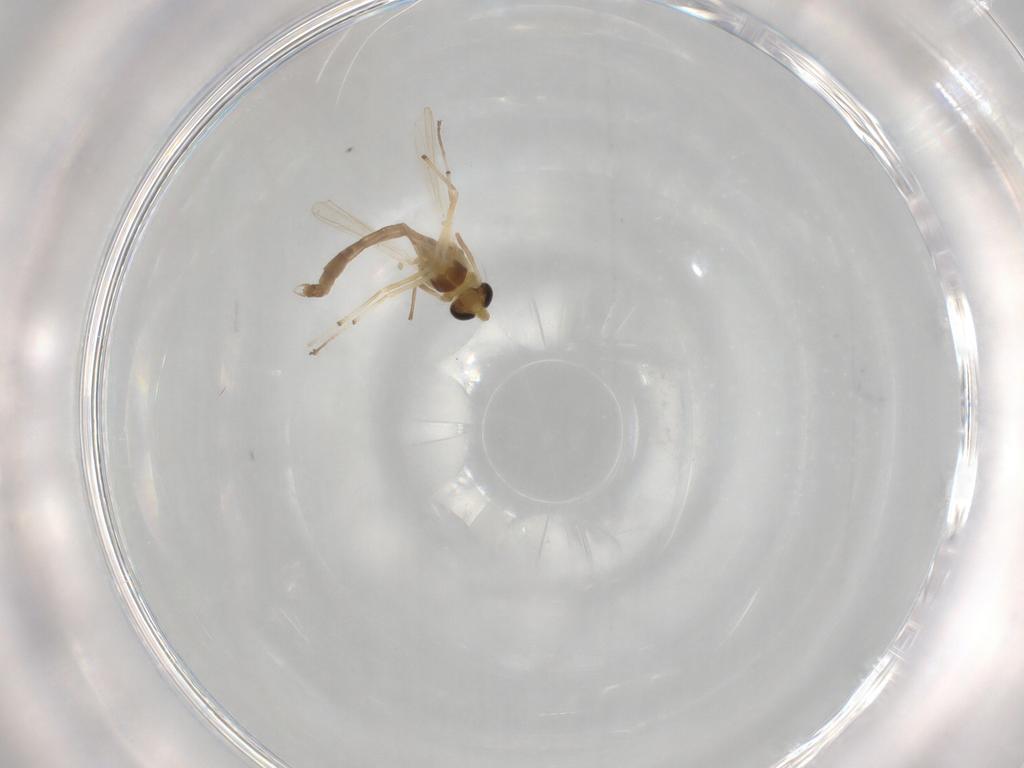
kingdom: Animalia
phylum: Arthropoda
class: Insecta
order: Diptera
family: Chironomidae
